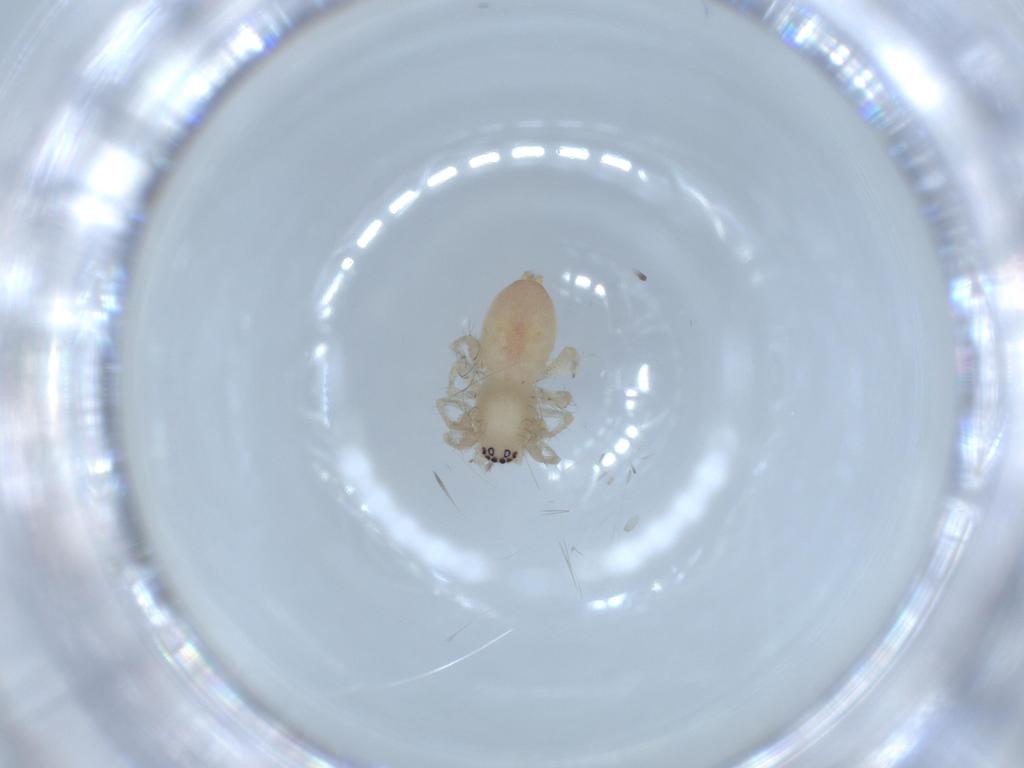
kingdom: Animalia
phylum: Arthropoda
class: Arachnida
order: Araneae
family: Clubionidae
